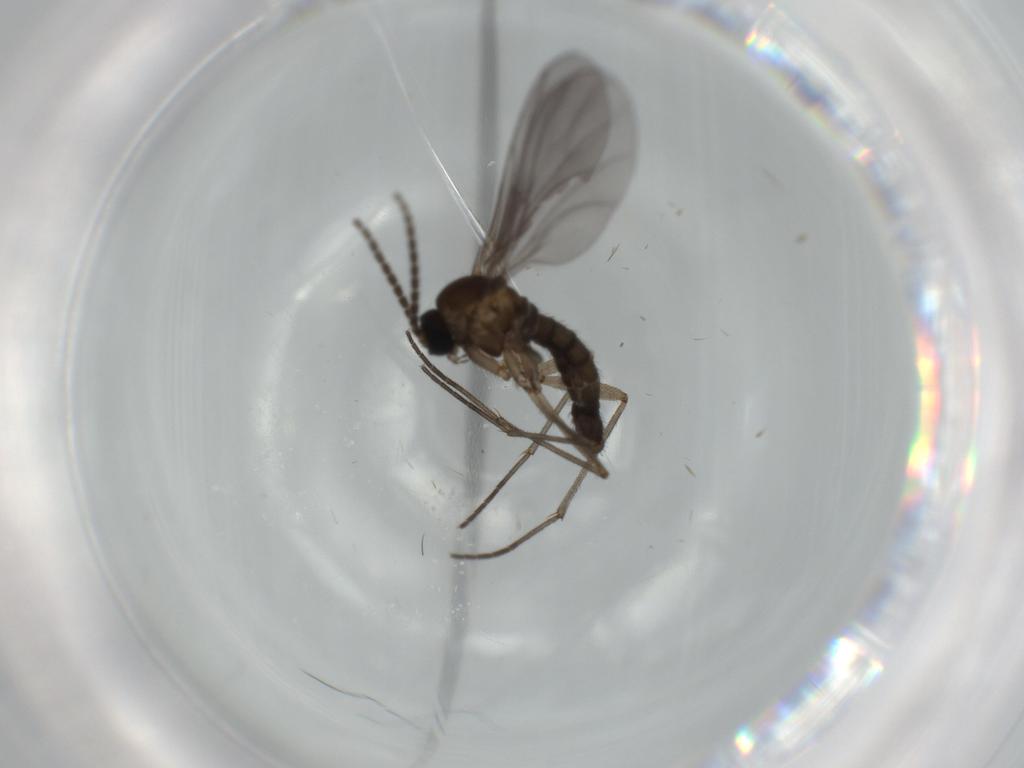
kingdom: Animalia
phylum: Arthropoda
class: Insecta
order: Diptera
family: Sciaridae
